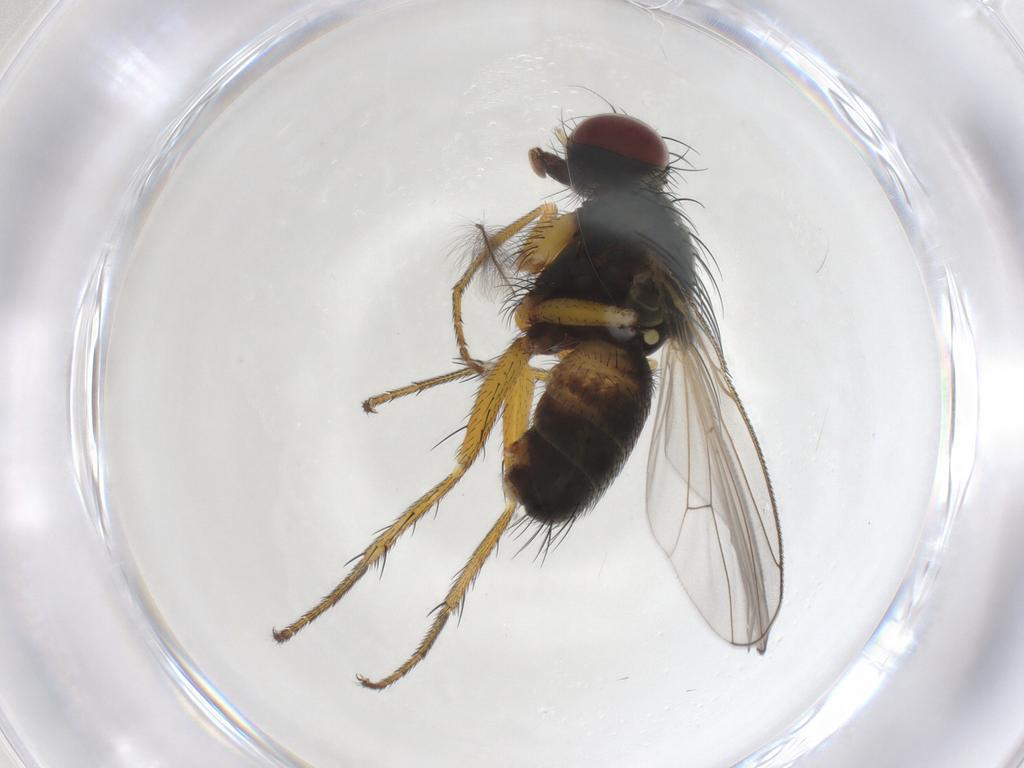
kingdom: Animalia
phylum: Arthropoda
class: Insecta
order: Diptera
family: Muscidae
